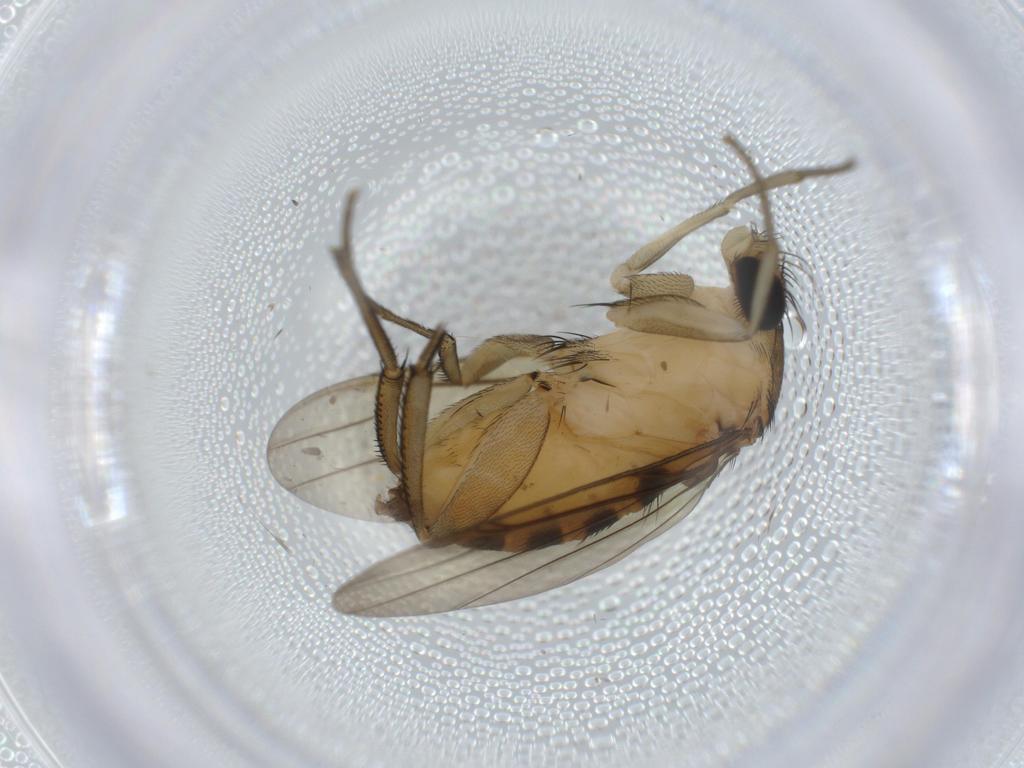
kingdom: Animalia
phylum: Arthropoda
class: Insecta
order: Diptera
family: Phoridae
